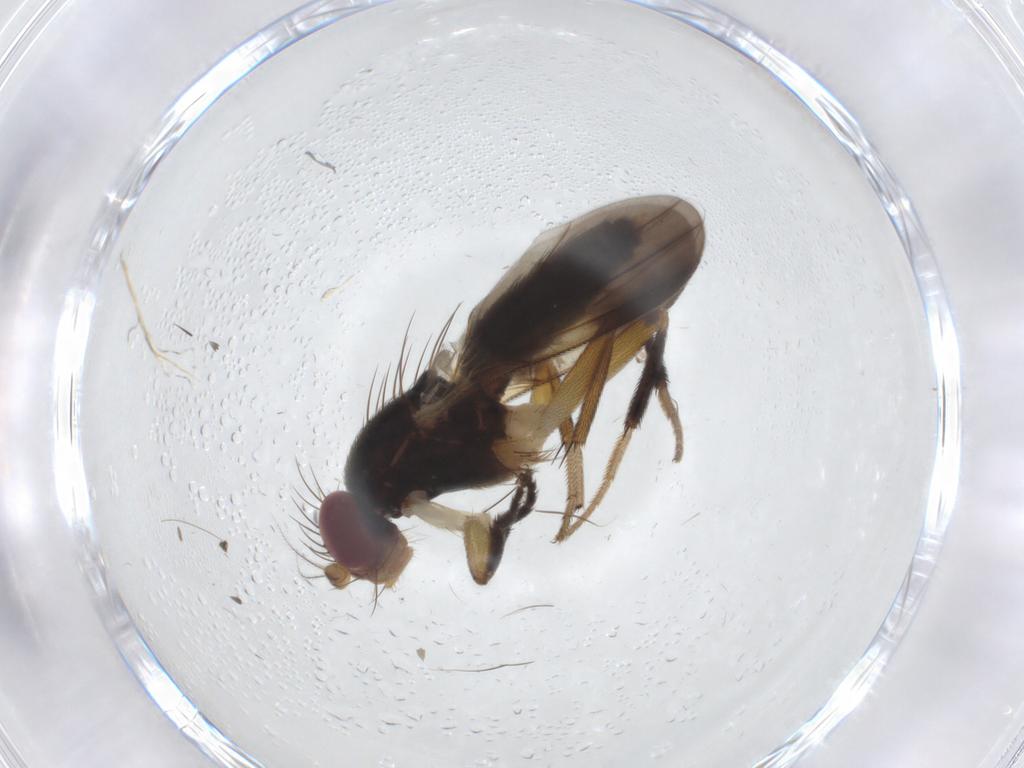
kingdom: Animalia
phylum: Arthropoda
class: Insecta
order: Diptera
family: Clusiidae
